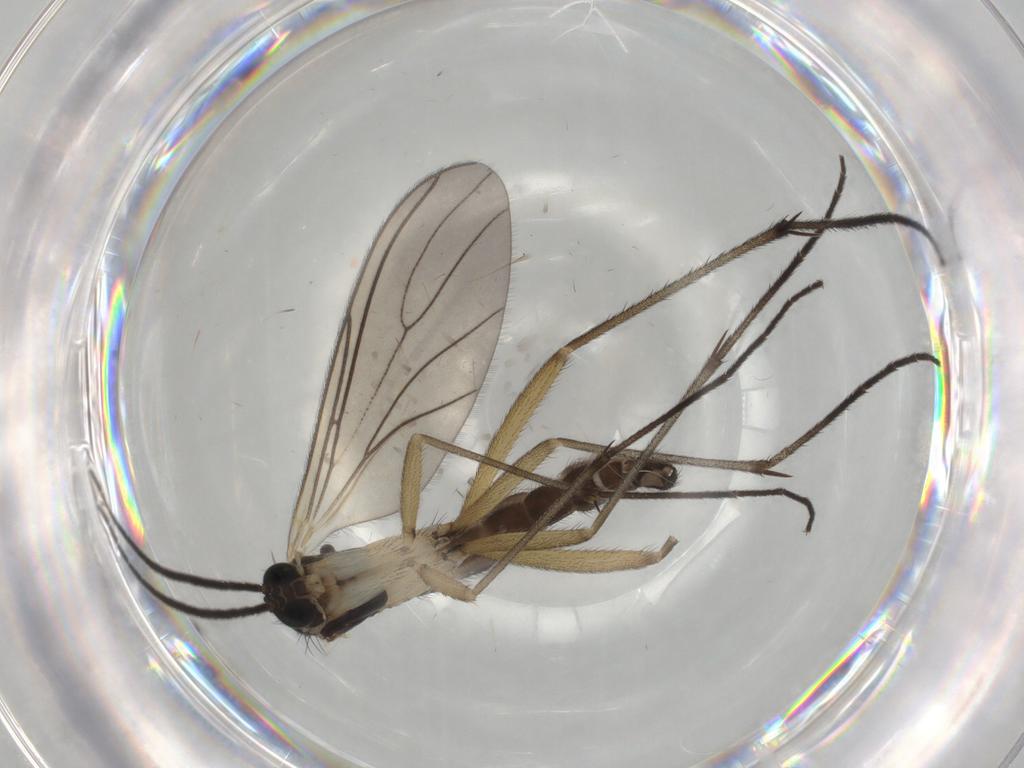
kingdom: Animalia
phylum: Arthropoda
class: Insecta
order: Diptera
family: Sciaridae
